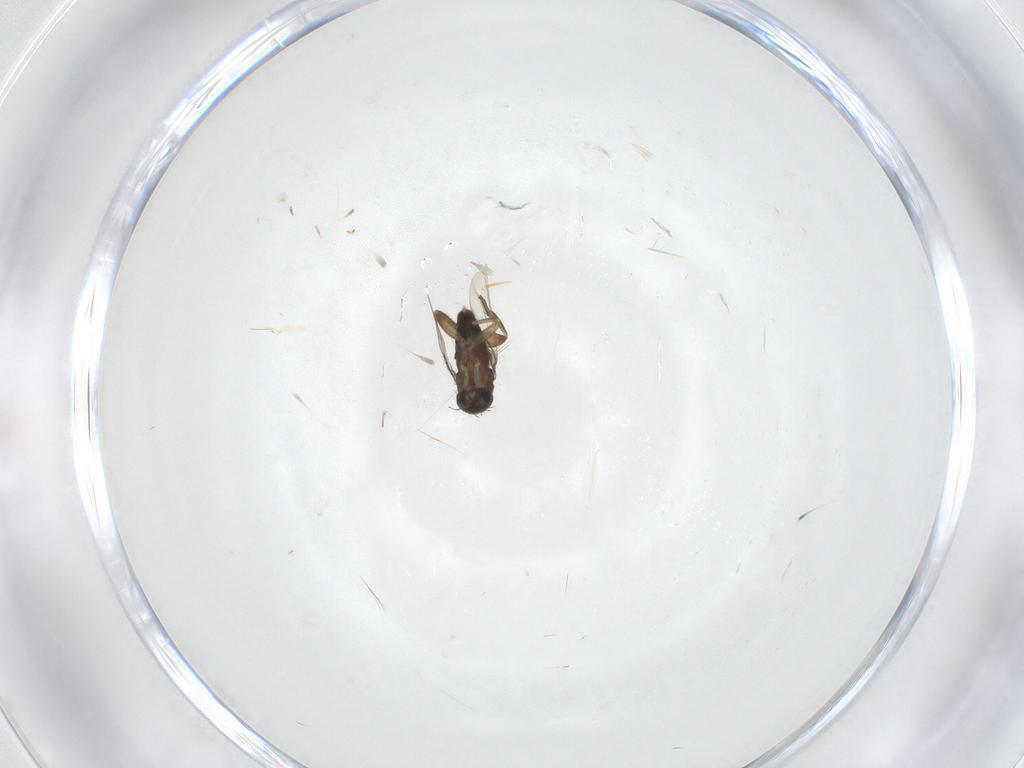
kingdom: Animalia
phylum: Arthropoda
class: Insecta
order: Diptera
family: Phoridae
